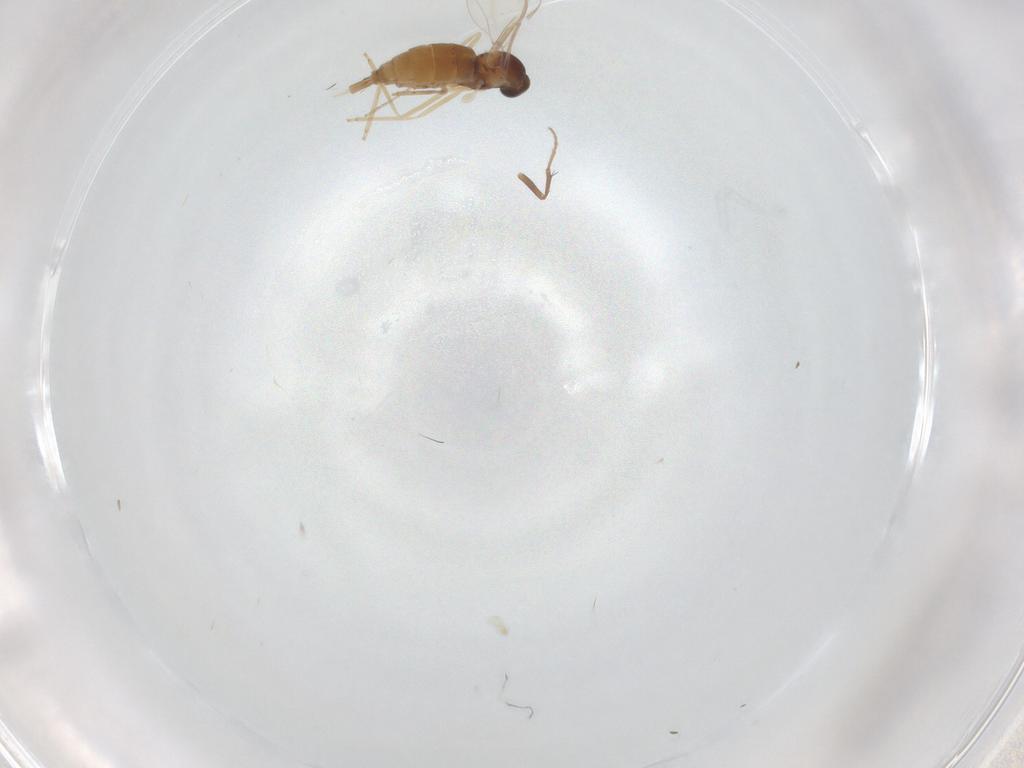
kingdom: Animalia
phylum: Arthropoda
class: Insecta
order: Diptera
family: Cecidomyiidae
